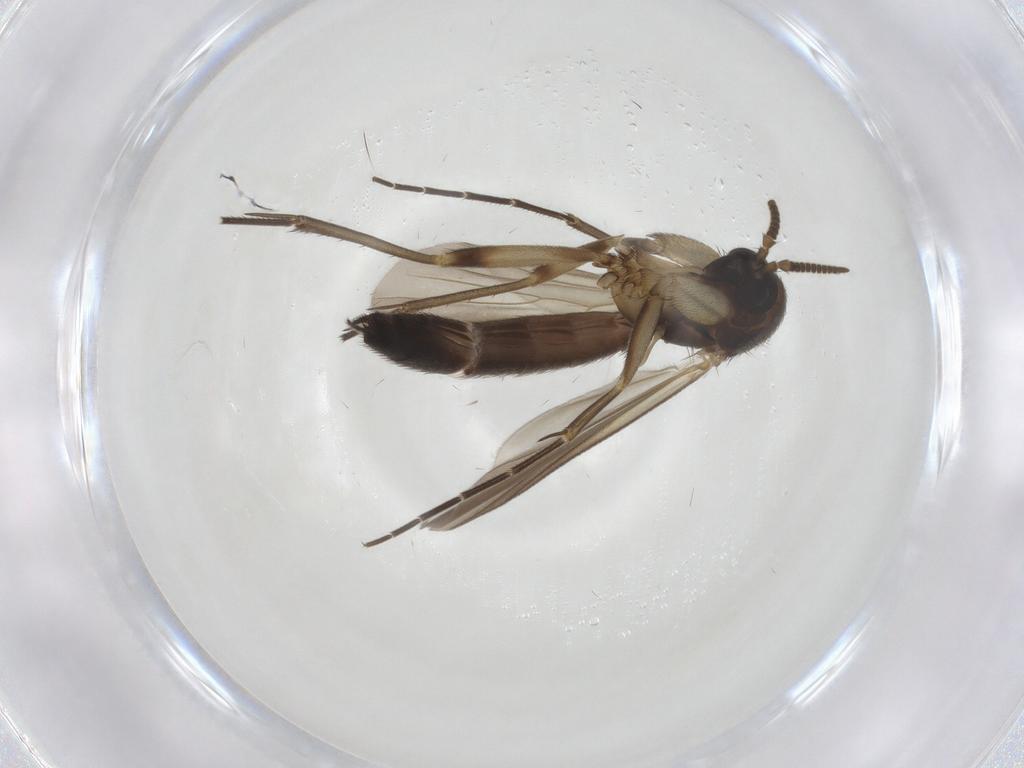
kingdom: Animalia
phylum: Arthropoda
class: Insecta
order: Diptera
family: Mycetophilidae
